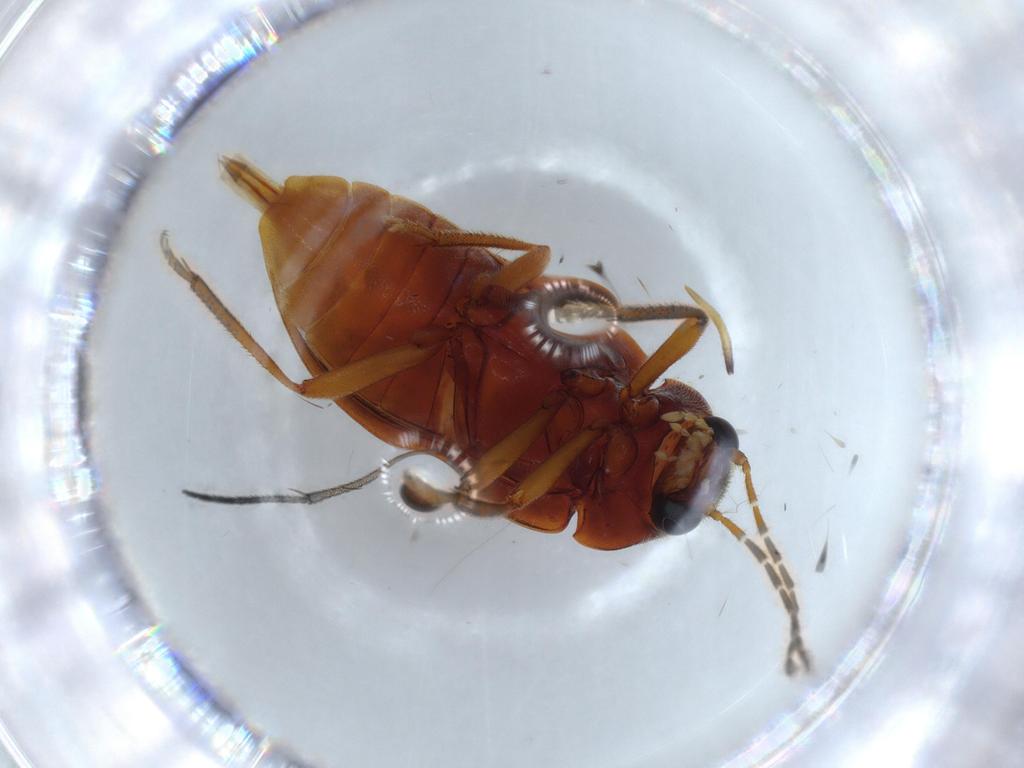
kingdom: Animalia
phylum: Arthropoda
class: Insecta
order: Coleoptera
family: Ptilodactylidae
